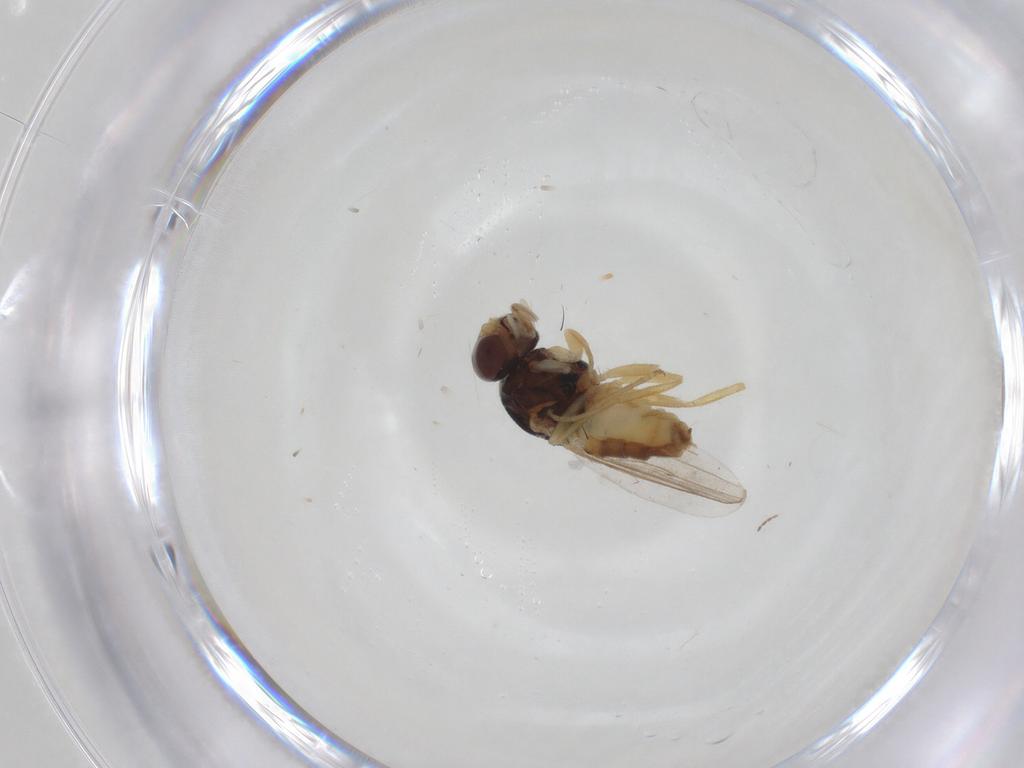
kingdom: Animalia
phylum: Arthropoda
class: Insecta
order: Diptera
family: Chloropidae
